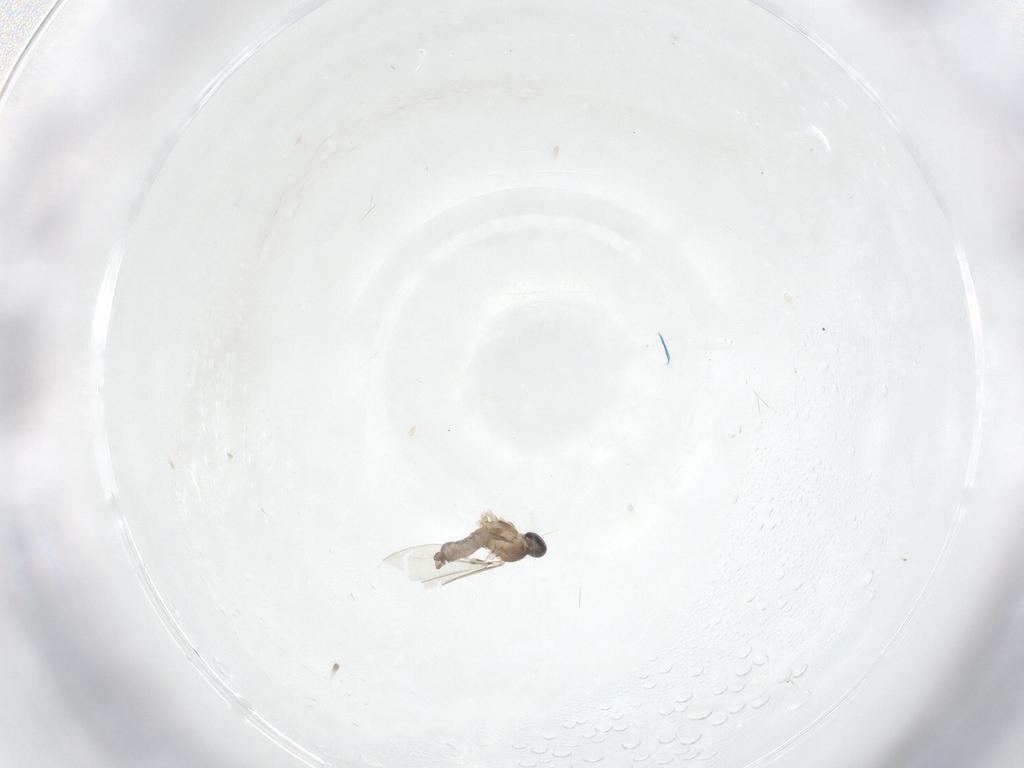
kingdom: Animalia
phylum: Arthropoda
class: Insecta
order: Diptera
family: Cecidomyiidae
